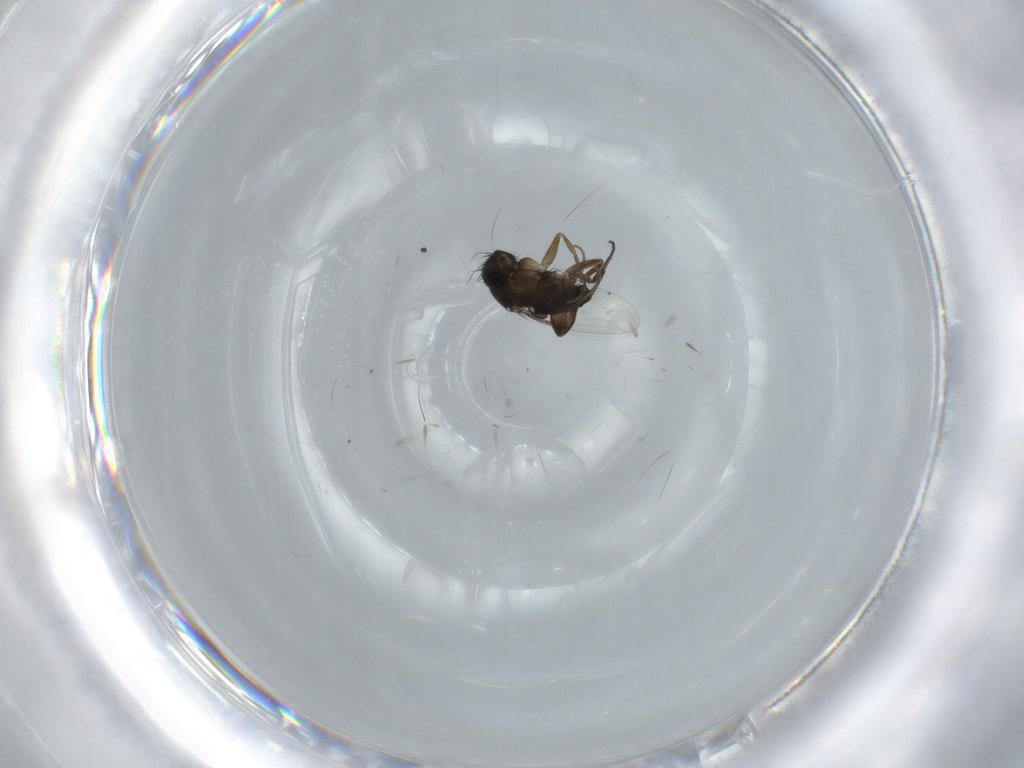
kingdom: Animalia
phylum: Arthropoda
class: Insecta
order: Diptera
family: Phoridae
